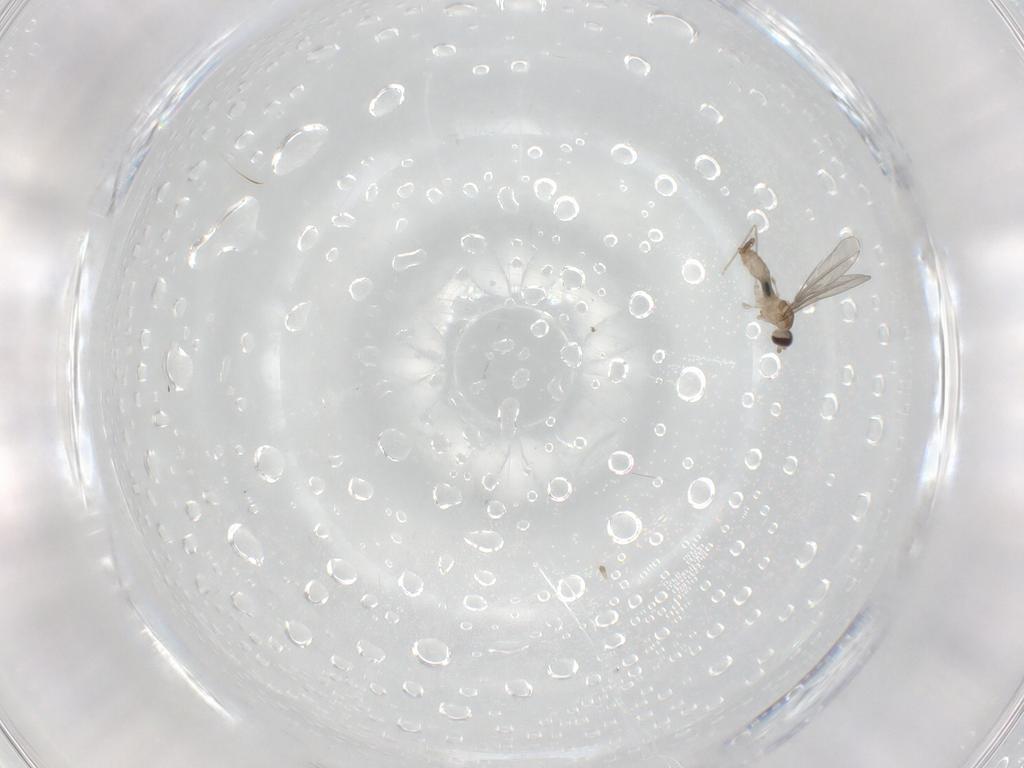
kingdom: Animalia
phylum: Arthropoda
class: Insecta
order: Diptera
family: Cecidomyiidae
